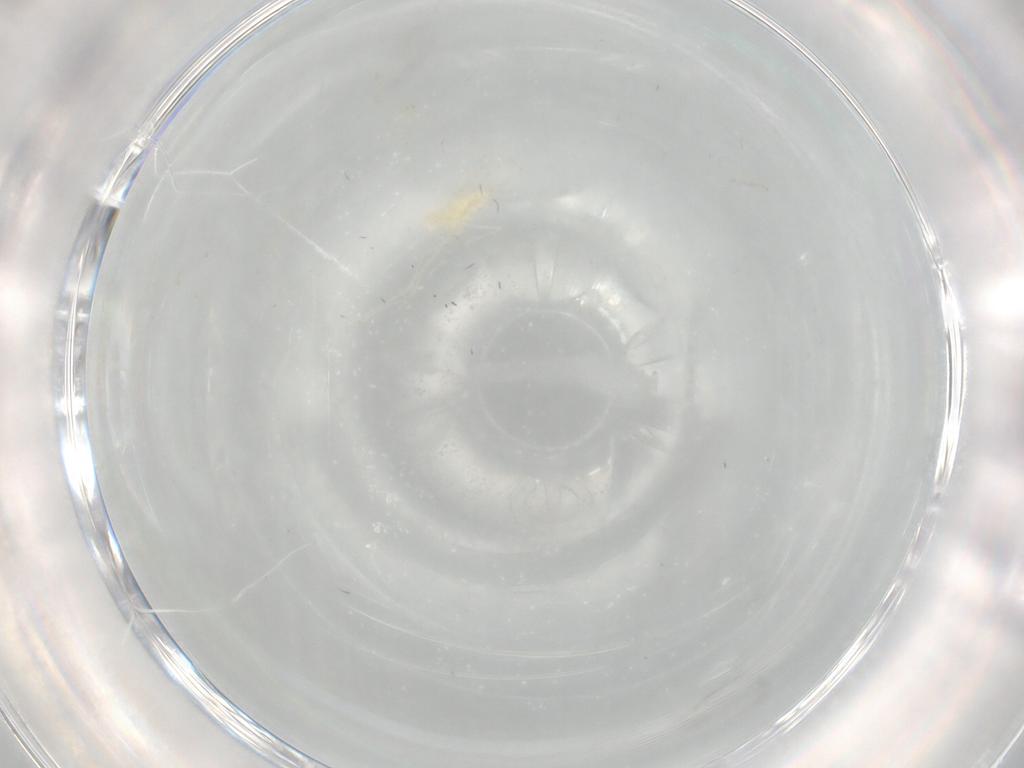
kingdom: Animalia
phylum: Arthropoda
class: Insecta
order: Diptera
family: Cecidomyiidae
